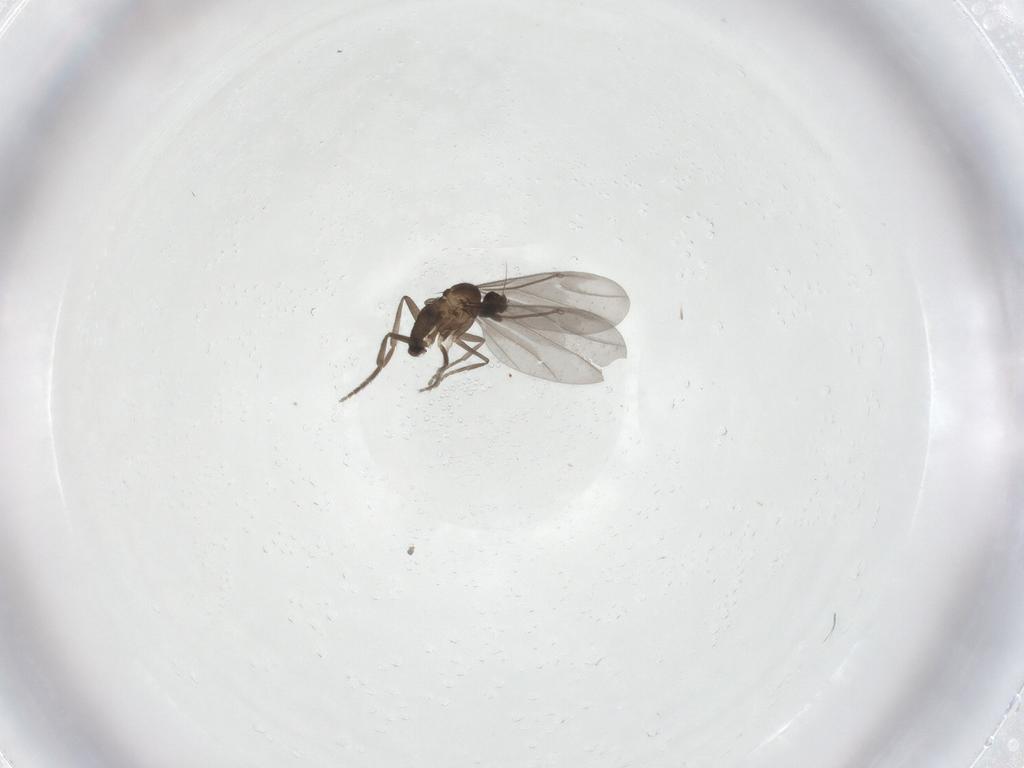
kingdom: Animalia
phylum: Arthropoda
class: Insecta
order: Diptera
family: Phoridae
